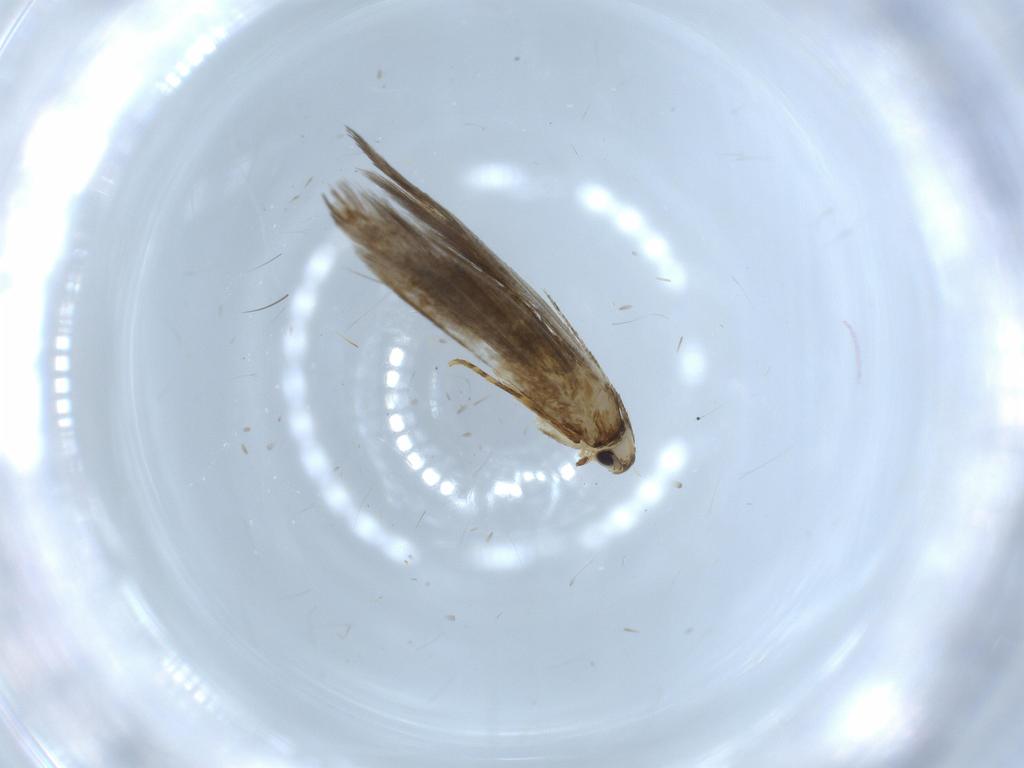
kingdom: Animalia
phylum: Arthropoda
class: Insecta
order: Lepidoptera
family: Tineidae
